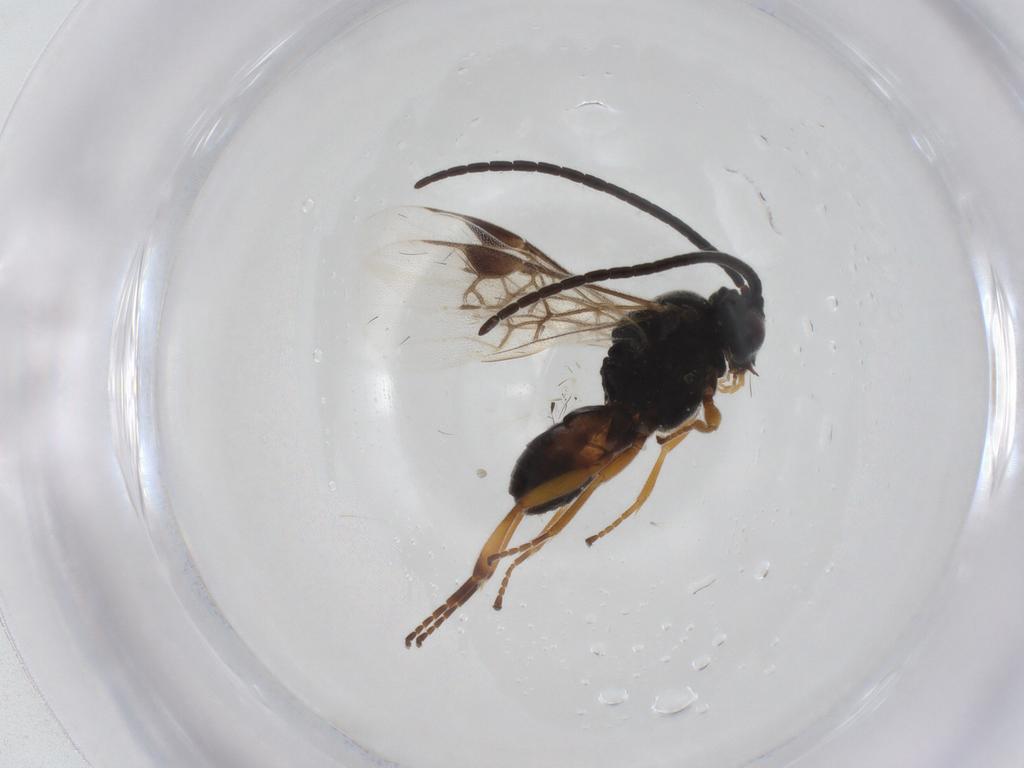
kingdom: Animalia
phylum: Arthropoda
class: Insecta
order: Hymenoptera
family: Braconidae
